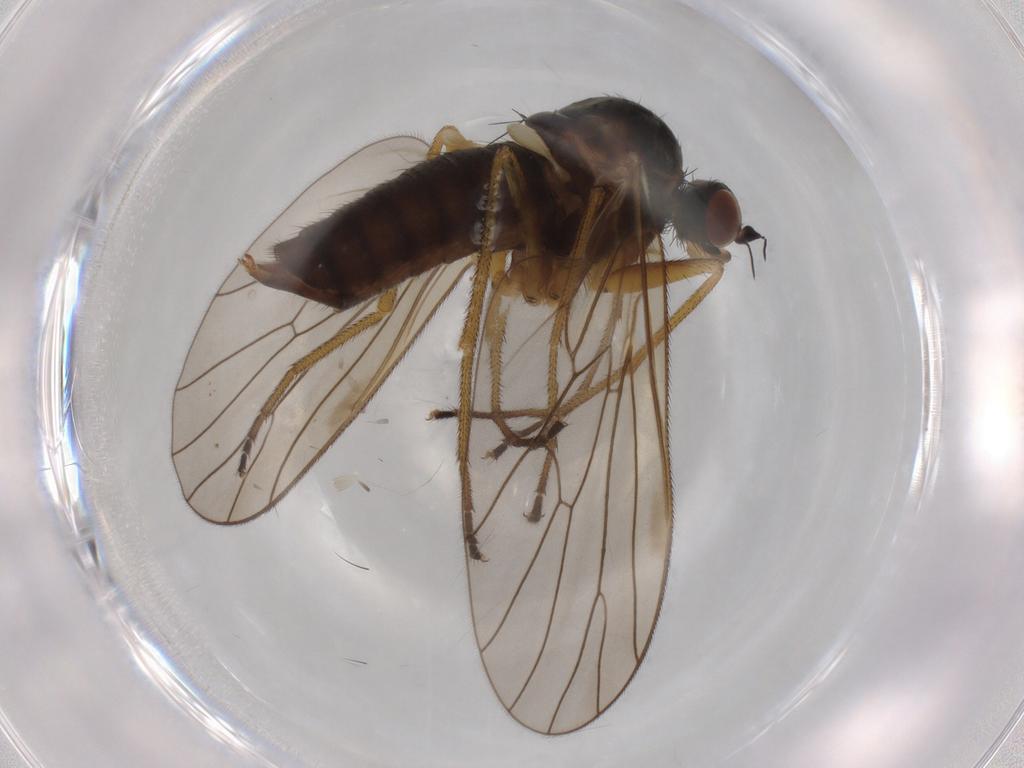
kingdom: Animalia
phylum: Arthropoda
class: Insecta
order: Diptera
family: Brachystomatidae
